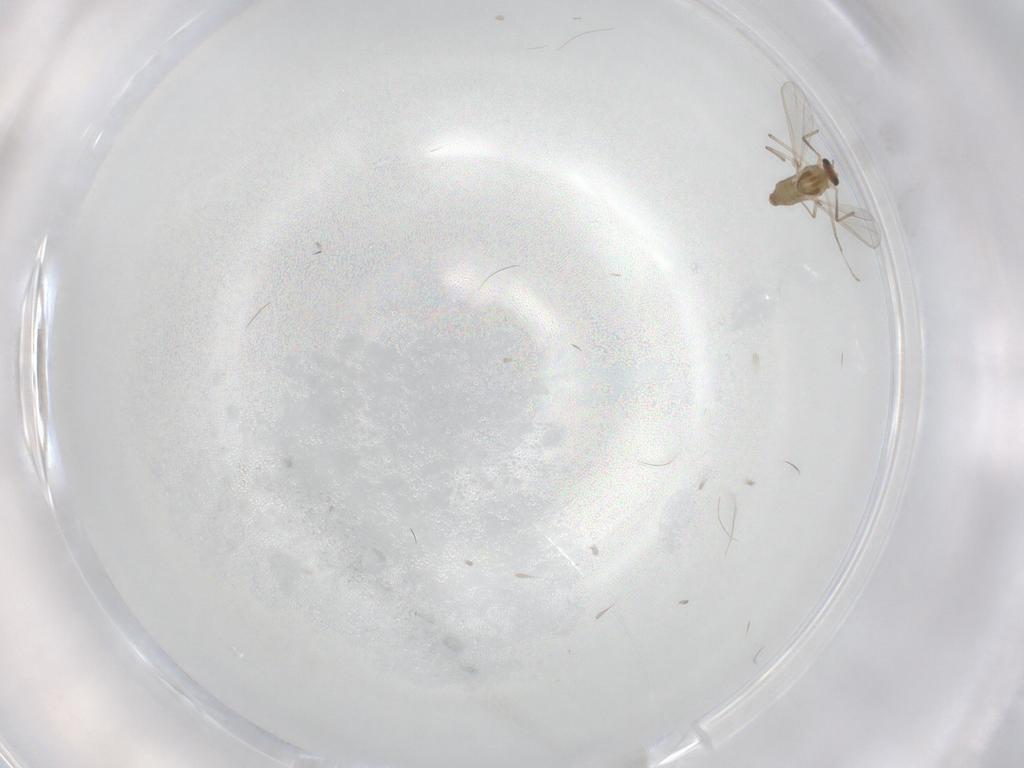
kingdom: Animalia
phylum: Arthropoda
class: Insecta
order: Diptera
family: Chironomidae
